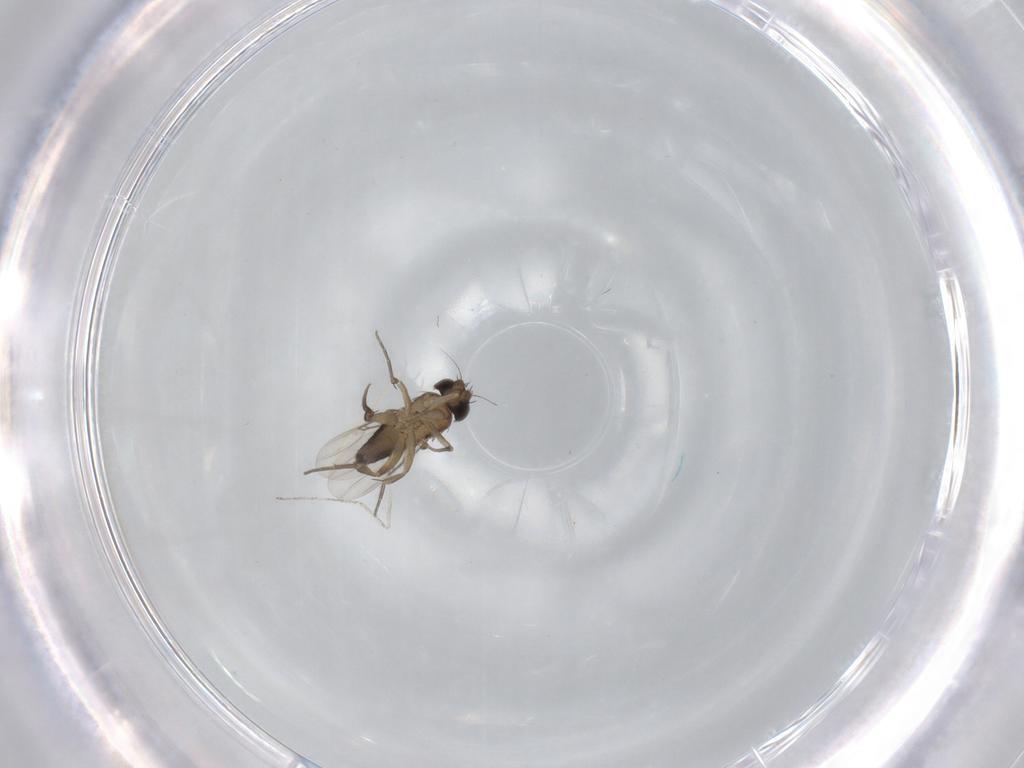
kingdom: Animalia
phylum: Arthropoda
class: Insecta
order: Diptera
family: Phoridae
